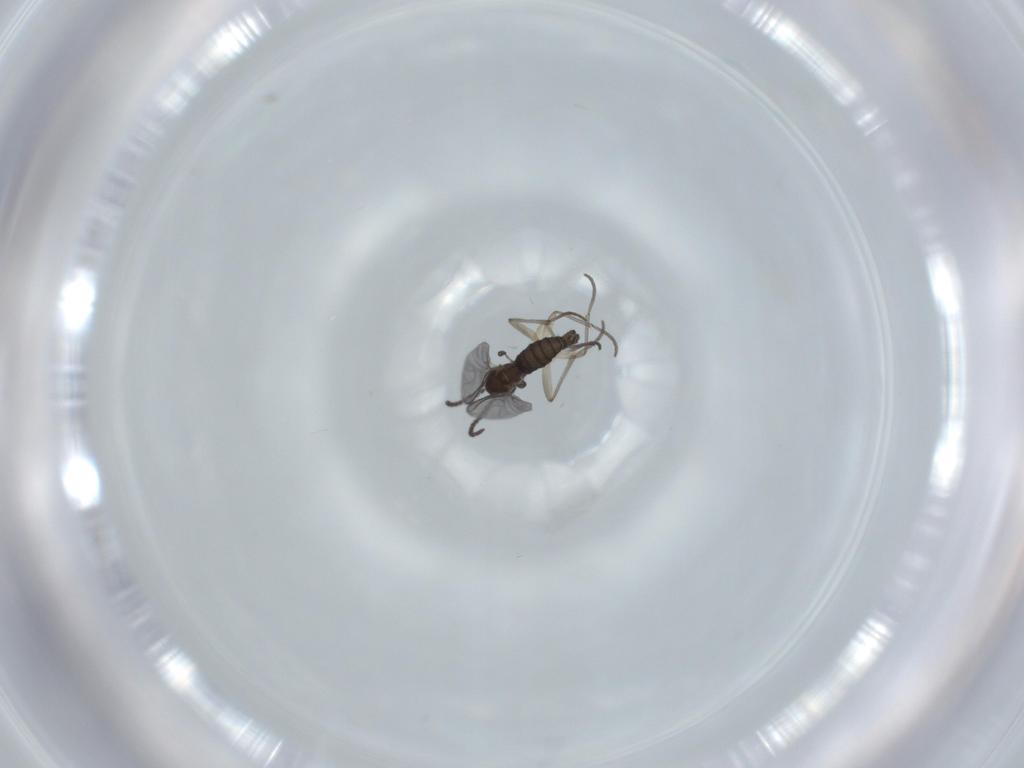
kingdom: Animalia
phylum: Arthropoda
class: Insecta
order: Diptera
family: Sciaridae
